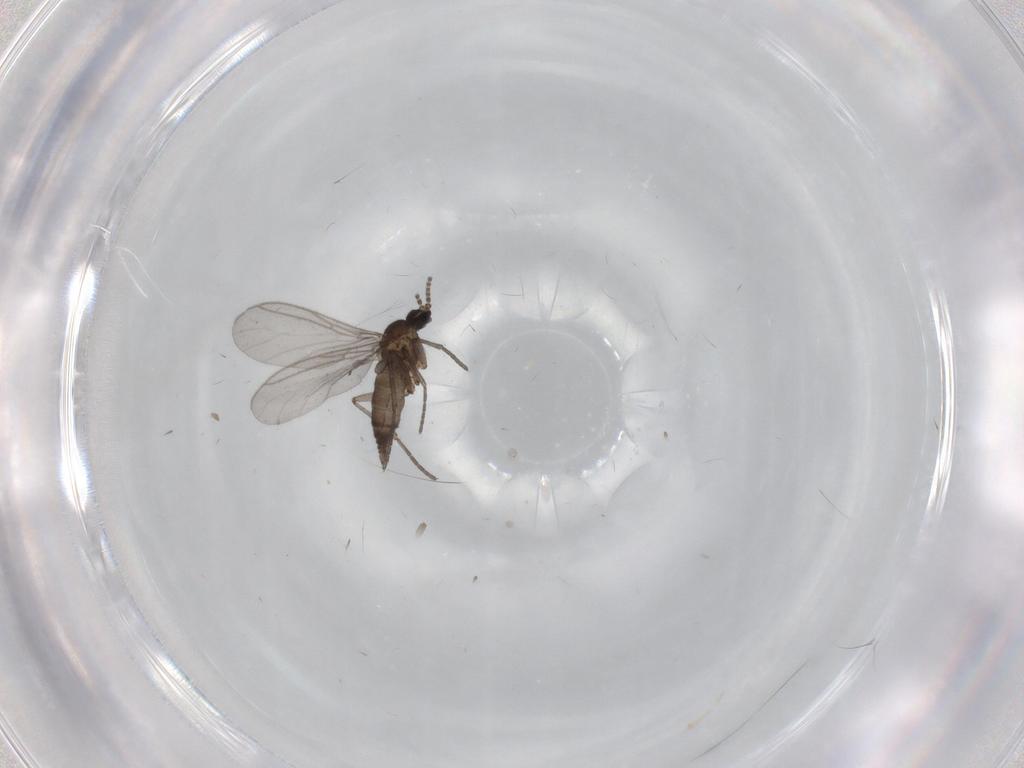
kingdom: Animalia
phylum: Arthropoda
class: Insecta
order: Diptera
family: Sciaridae
